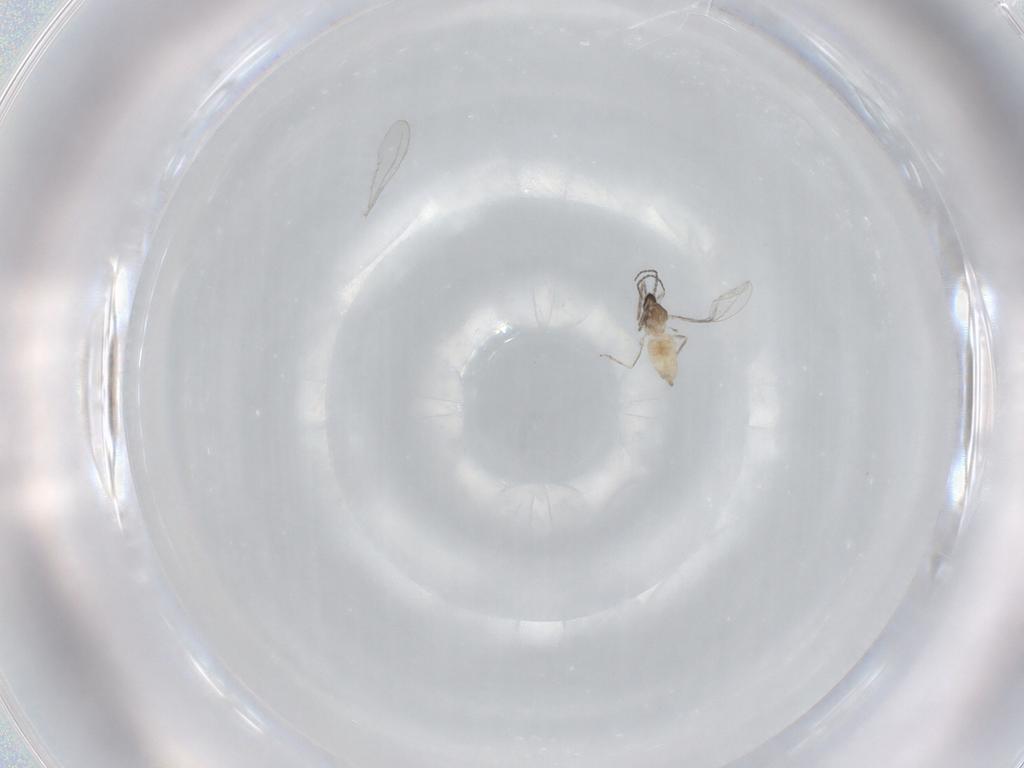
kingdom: Animalia
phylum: Arthropoda
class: Insecta
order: Diptera
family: Cecidomyiidae
